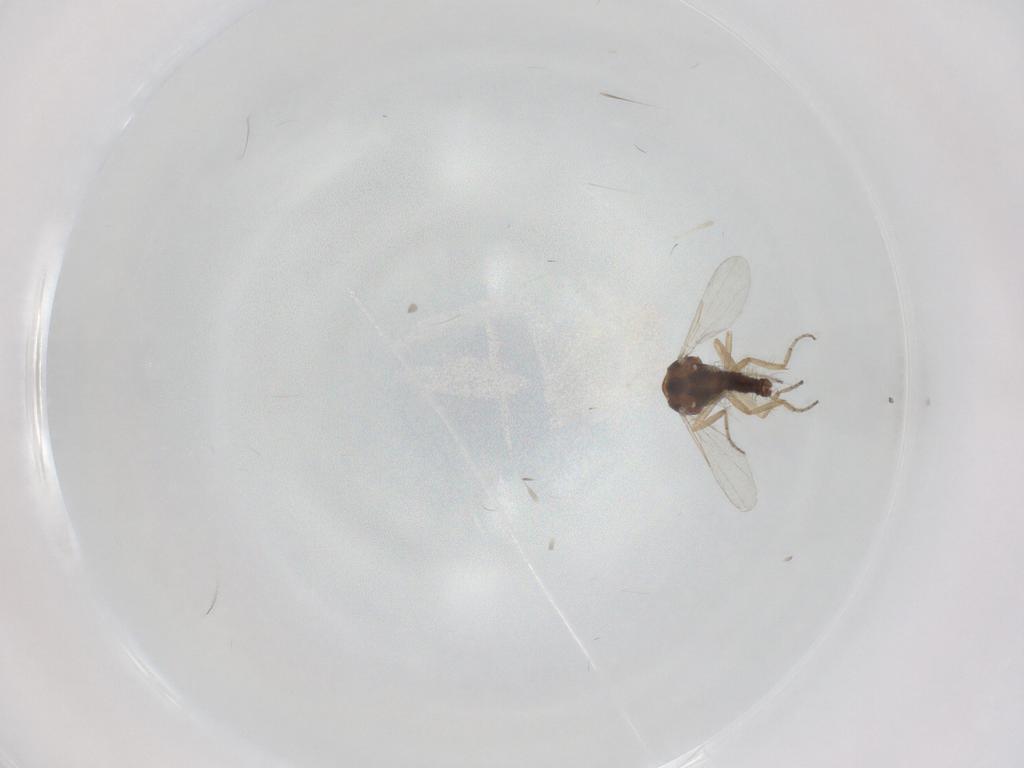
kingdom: Animalia
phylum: Arthropoda
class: Insecta
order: Diptera
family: Ceratopogonidae
